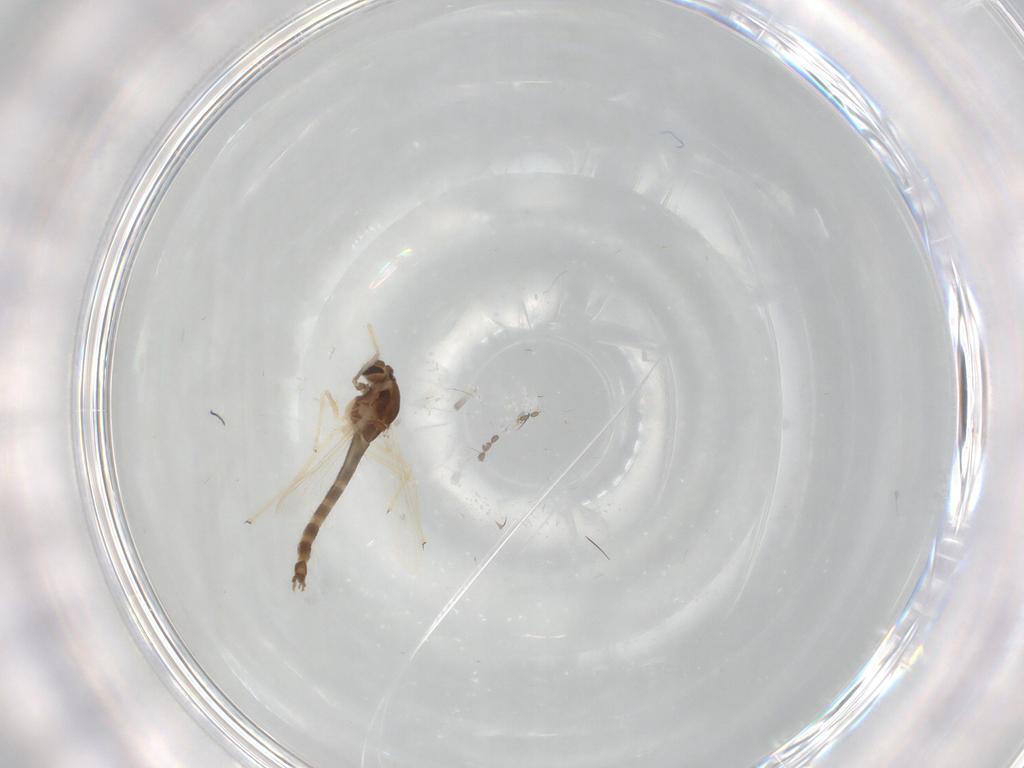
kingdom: Animalia
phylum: Arthropoda
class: Insecta
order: Diptera
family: Chironomidae
